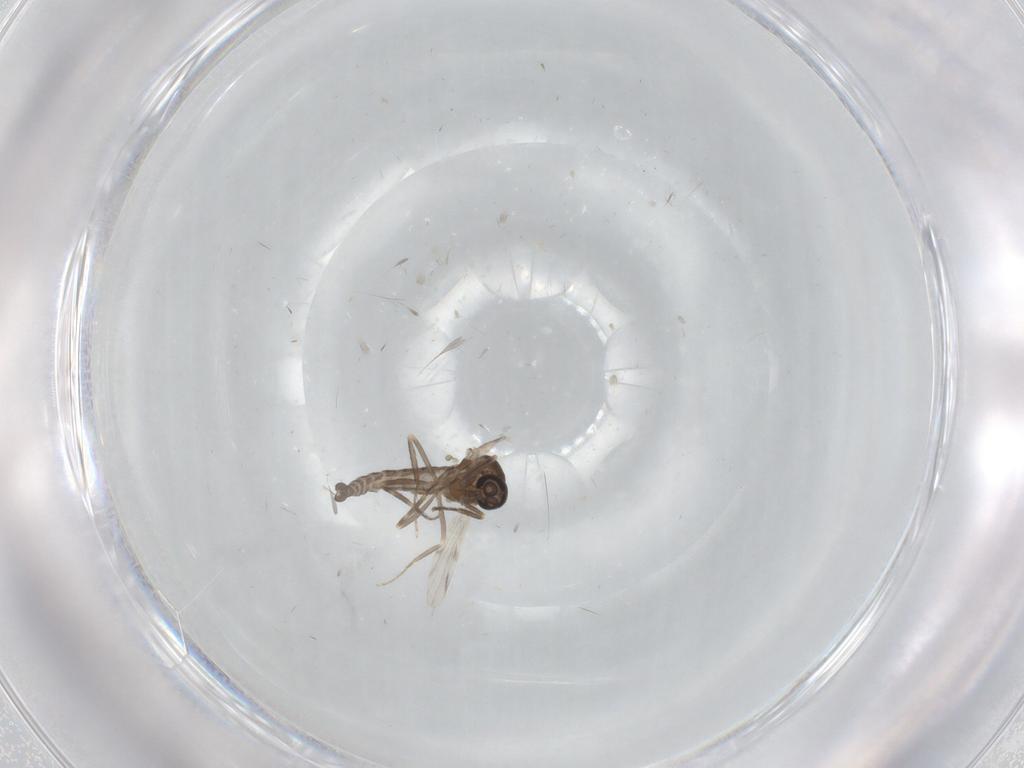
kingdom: Animalia
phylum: Arthropoda
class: Insecta
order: Diptera
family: Ceratopogonidae
